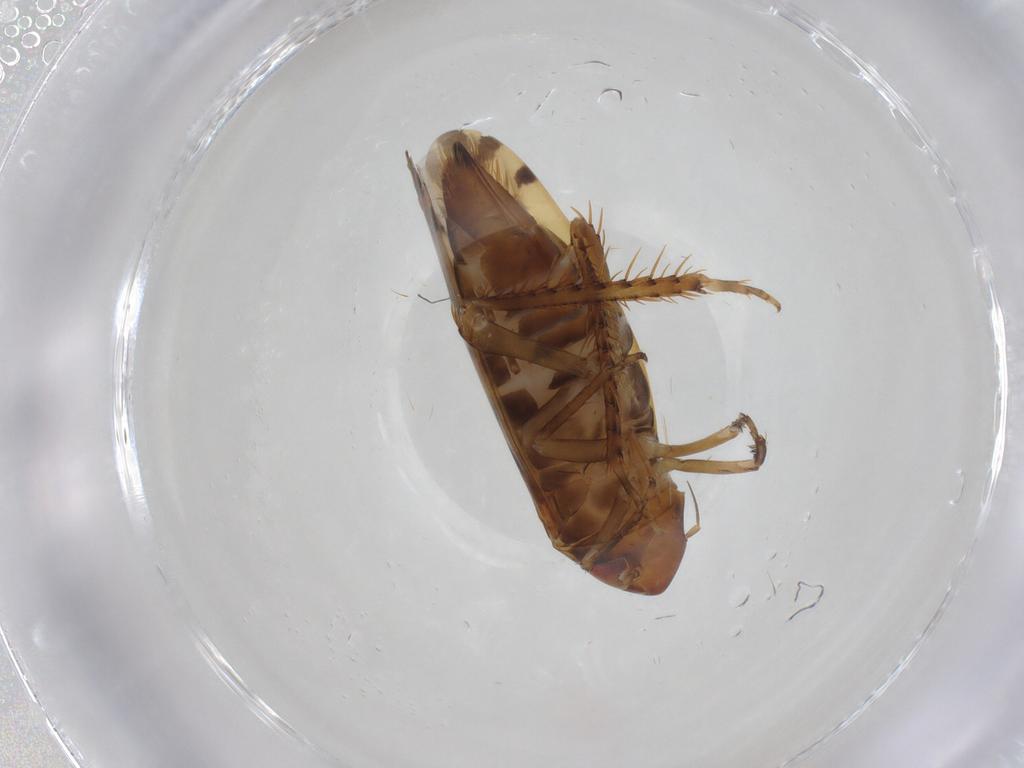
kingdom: Animalia
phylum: Arthropoda
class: Insecta
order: Hemiptera
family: Cicadellidae
